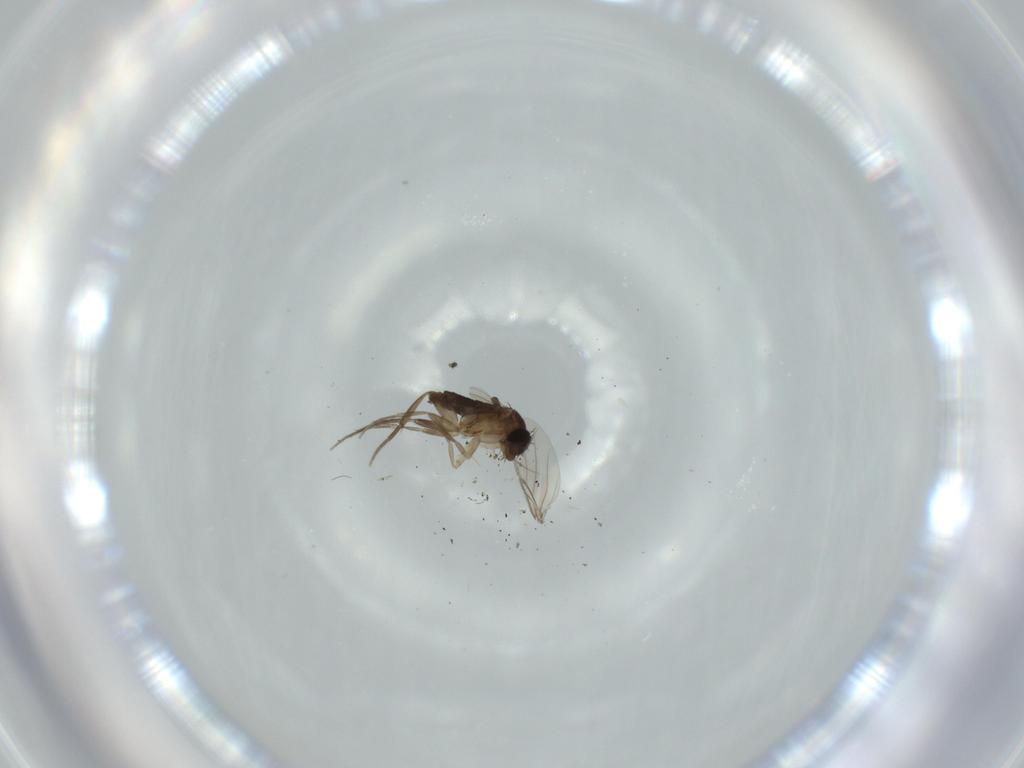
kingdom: Animalia
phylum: Arthropoda
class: Insecta
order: Diptera
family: Phoridae
